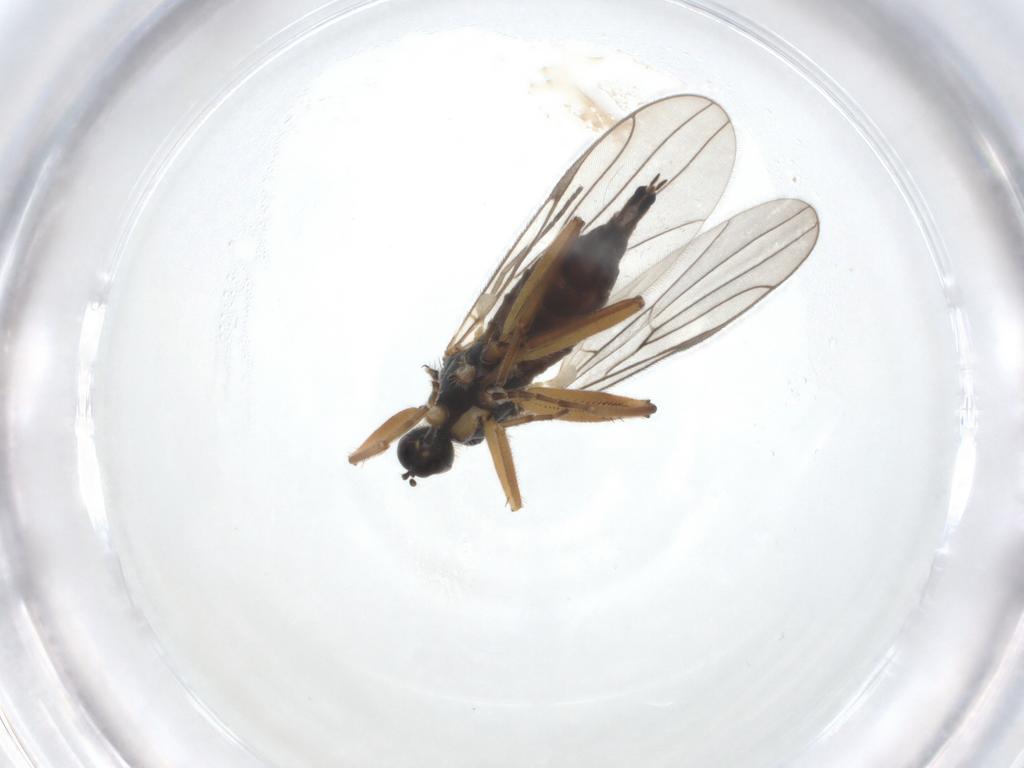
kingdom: Animalia
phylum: Arthropoda
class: Insecta
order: Diptera
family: Hybotidae
